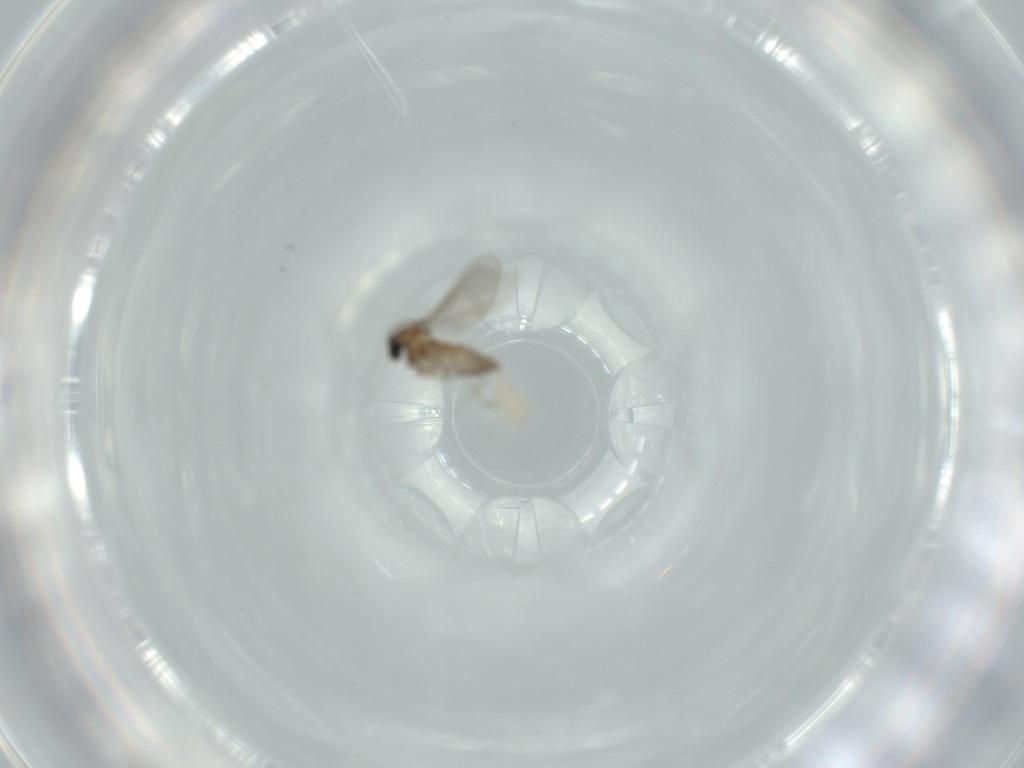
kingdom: Animalia
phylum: Arthropoda
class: Insecta
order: Diptera
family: Cecidomyiidae
